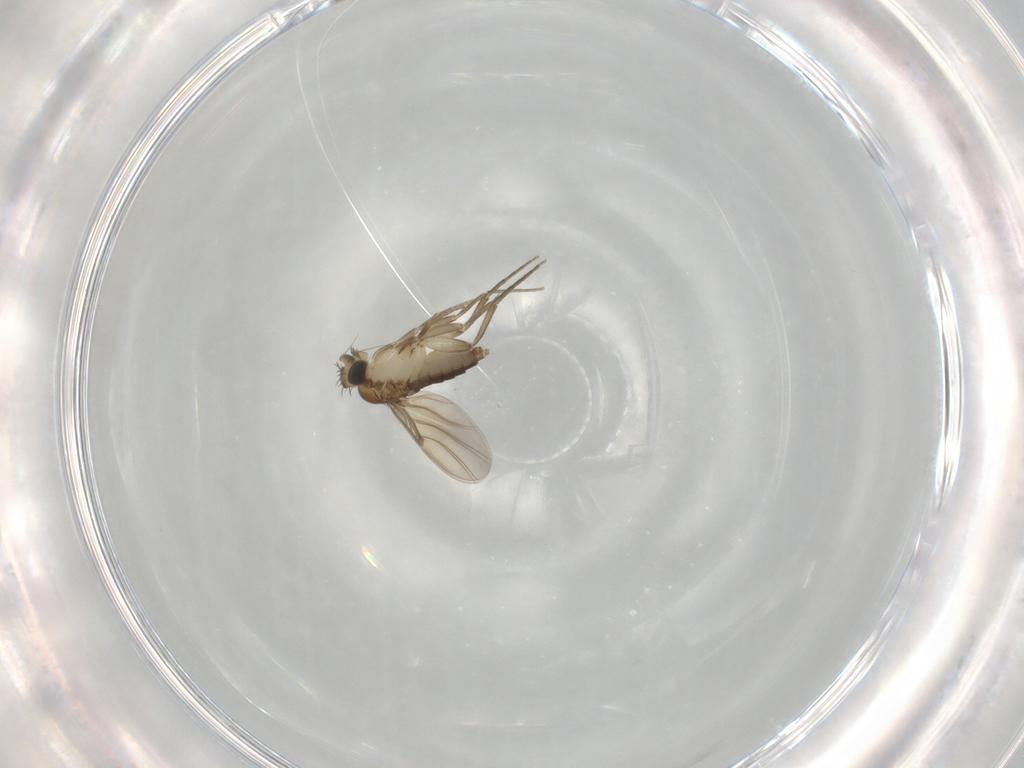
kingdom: Animalia
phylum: Arthropoda
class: Insecta
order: Diptera
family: Phoridae
